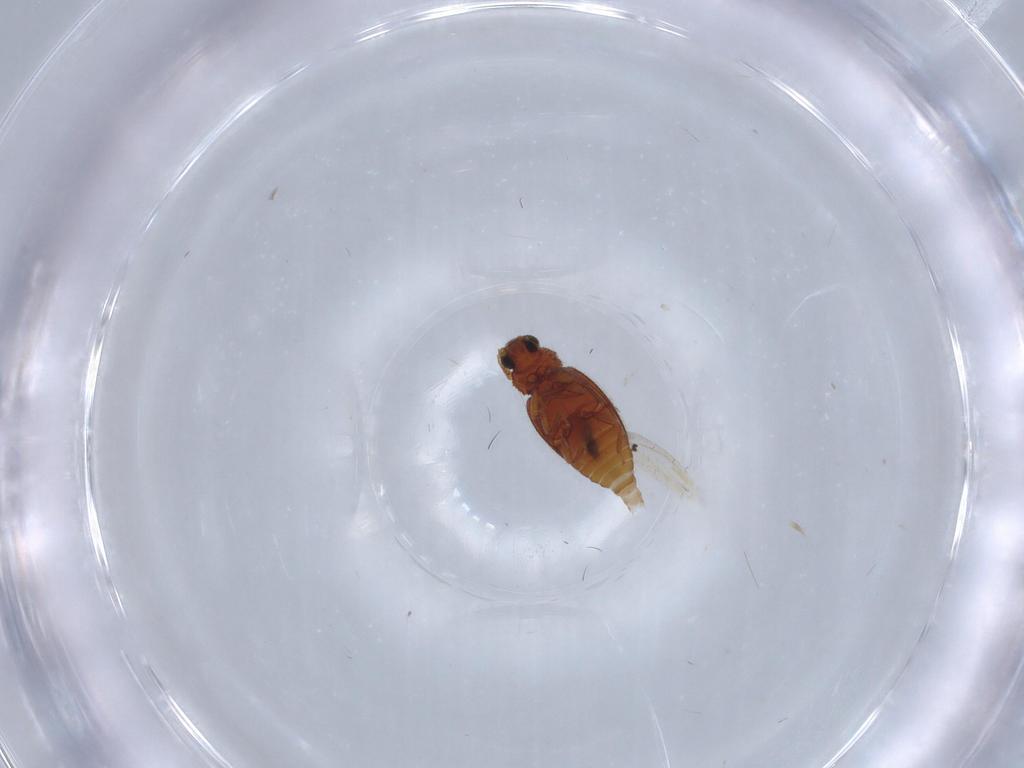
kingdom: Animalia
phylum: Arthropoda
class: Insecta
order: Coleoptera
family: Latridiidae
